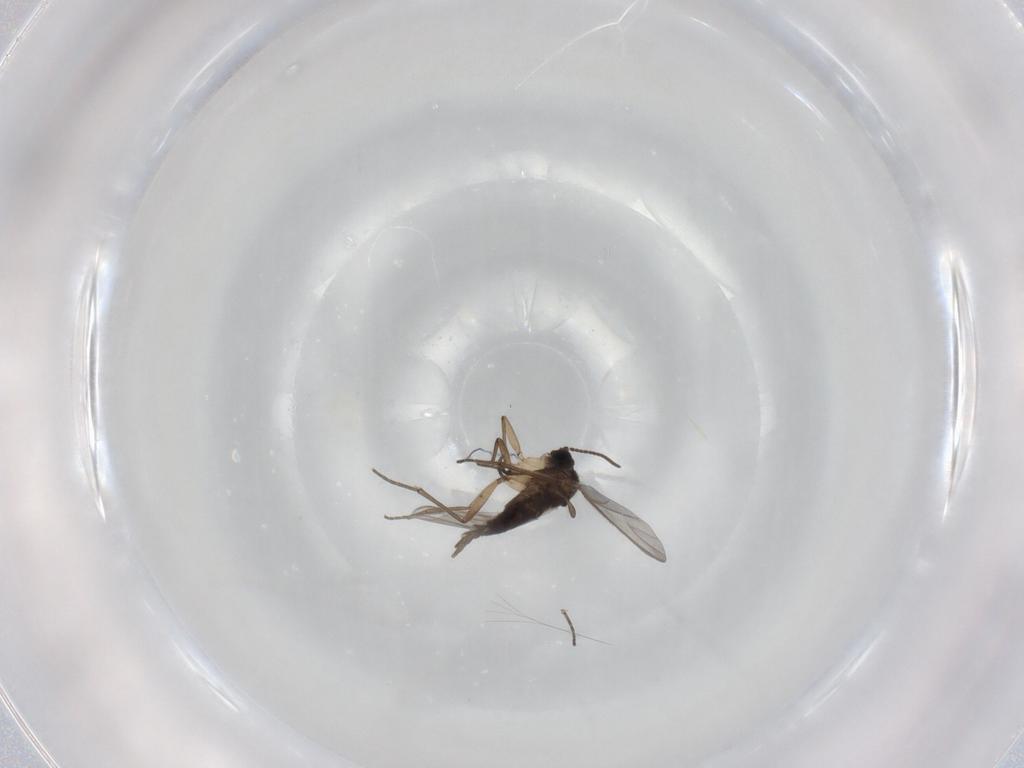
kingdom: Animalia
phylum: Arthropoda
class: Insecta
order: Diptera
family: Sciaridae
